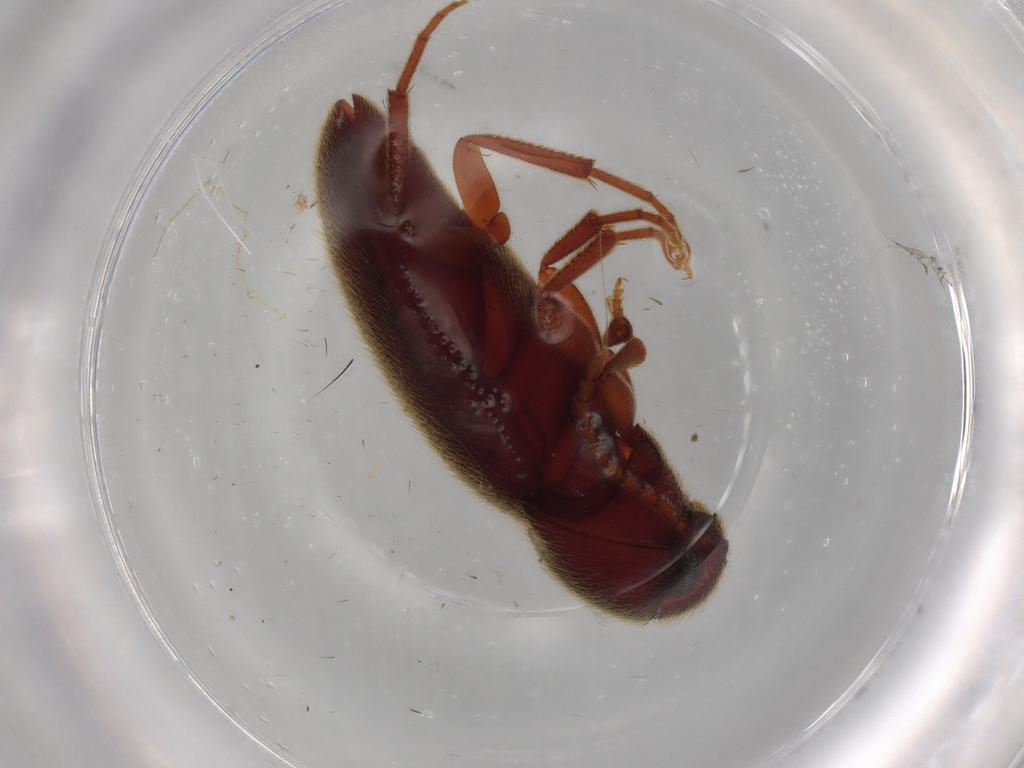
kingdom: Animalia
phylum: Arthropoda
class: Insecta
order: Coleoptera
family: Eucnemidae
